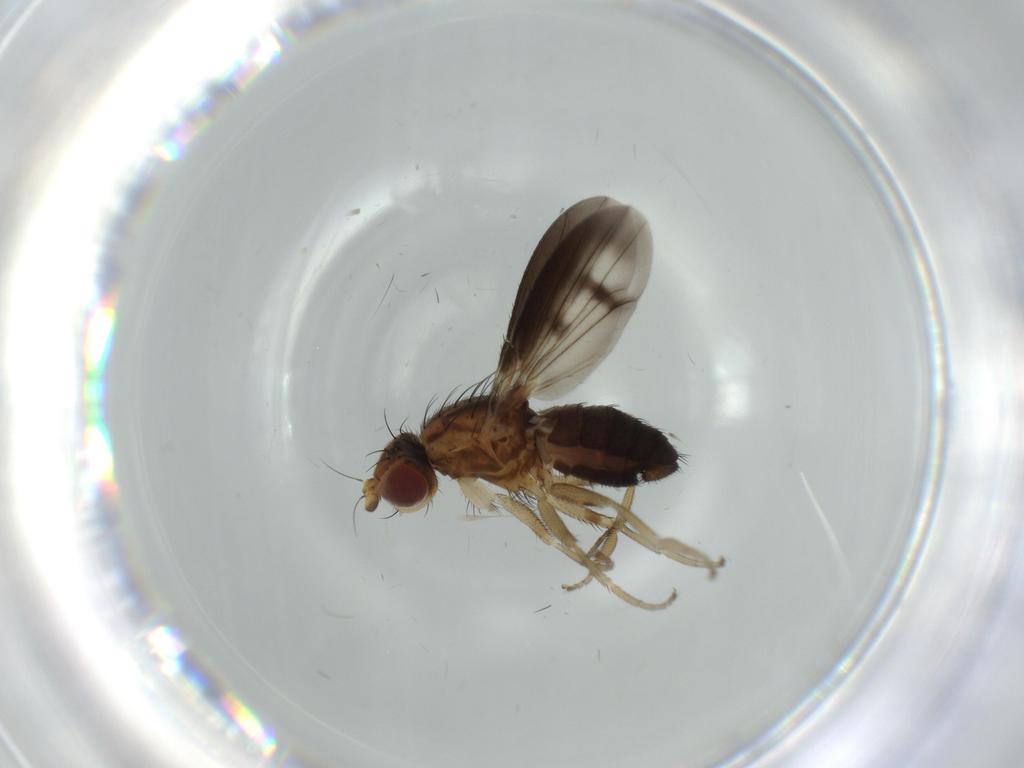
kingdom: Animalia
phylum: Arthropoda
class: Insecta
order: Diptera
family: Heleomyzidae
